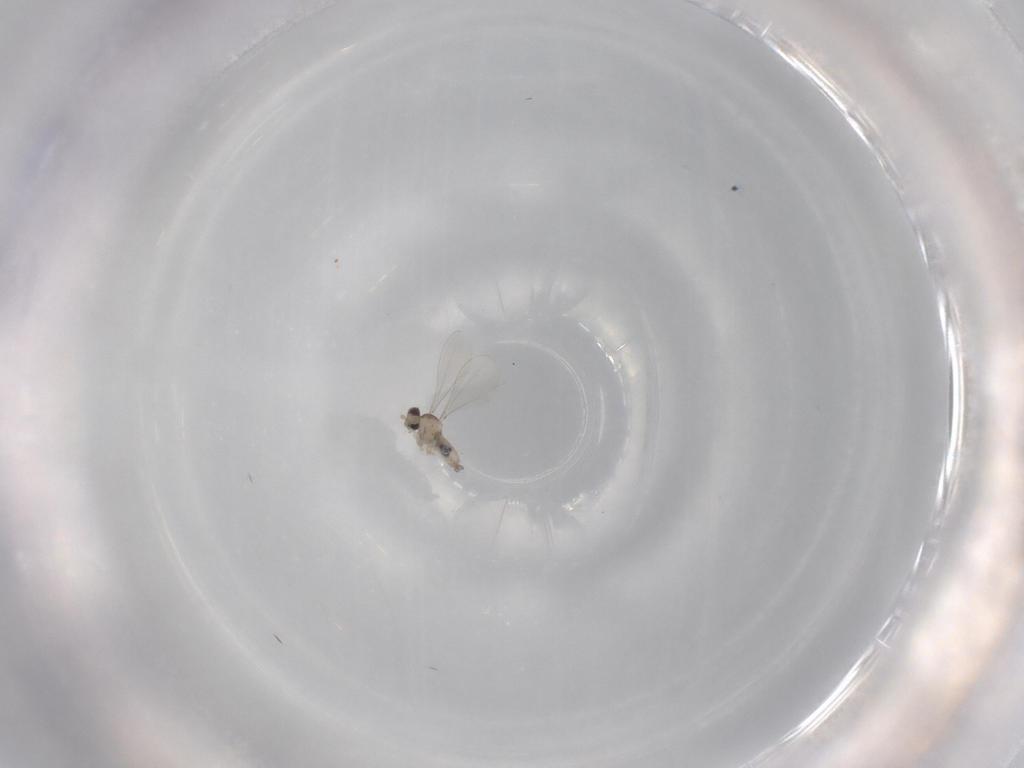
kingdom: Animalia
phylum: Arthropoda
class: Insecta
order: Diptera
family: Cecidomyiidae
